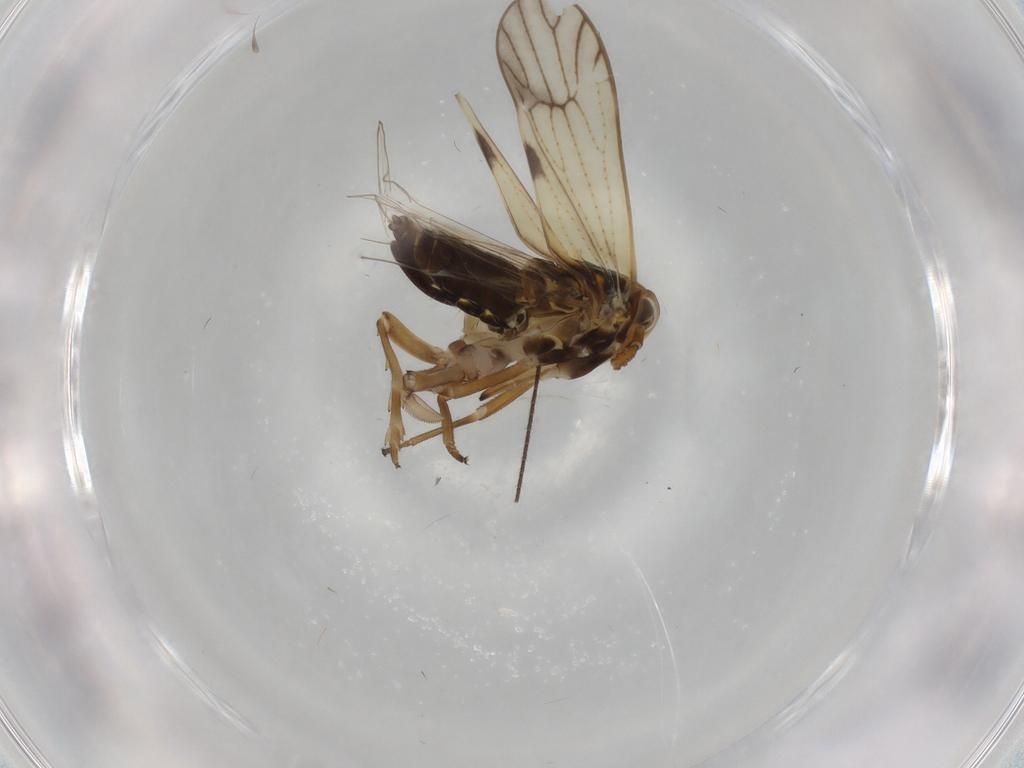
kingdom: Animalia
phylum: Arthropoda
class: Insecta
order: Hemiptera
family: Delphacidae
